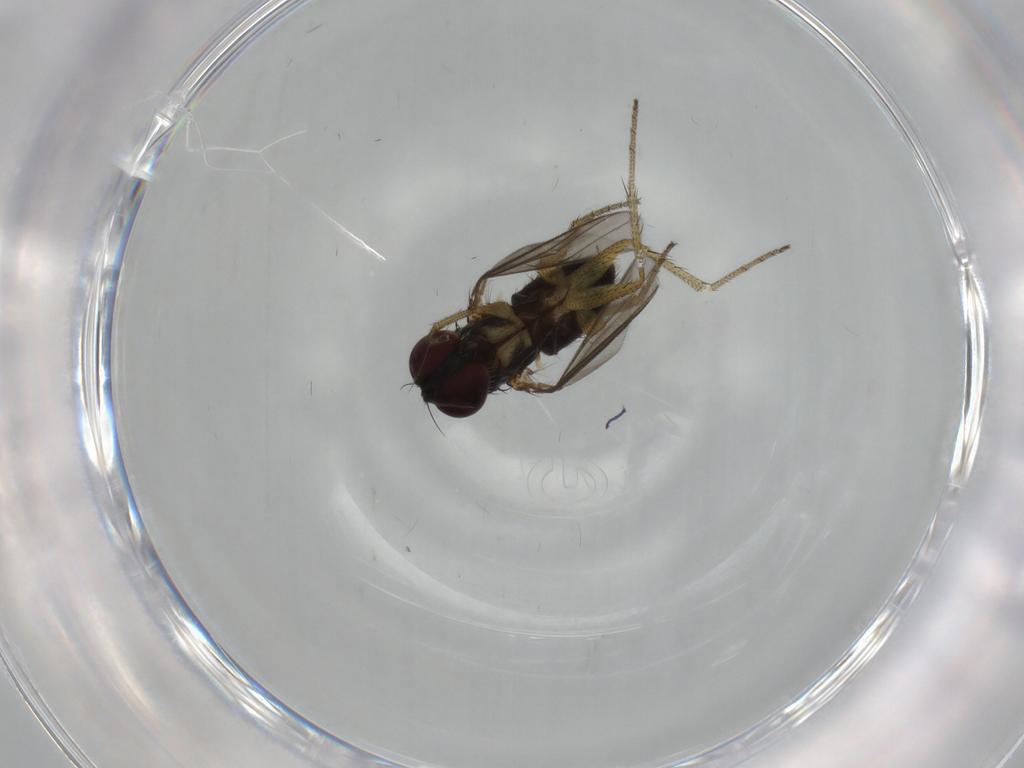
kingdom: Animalia
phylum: Arthropoda
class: Insecta
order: Diptera
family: Dolichopodidae
